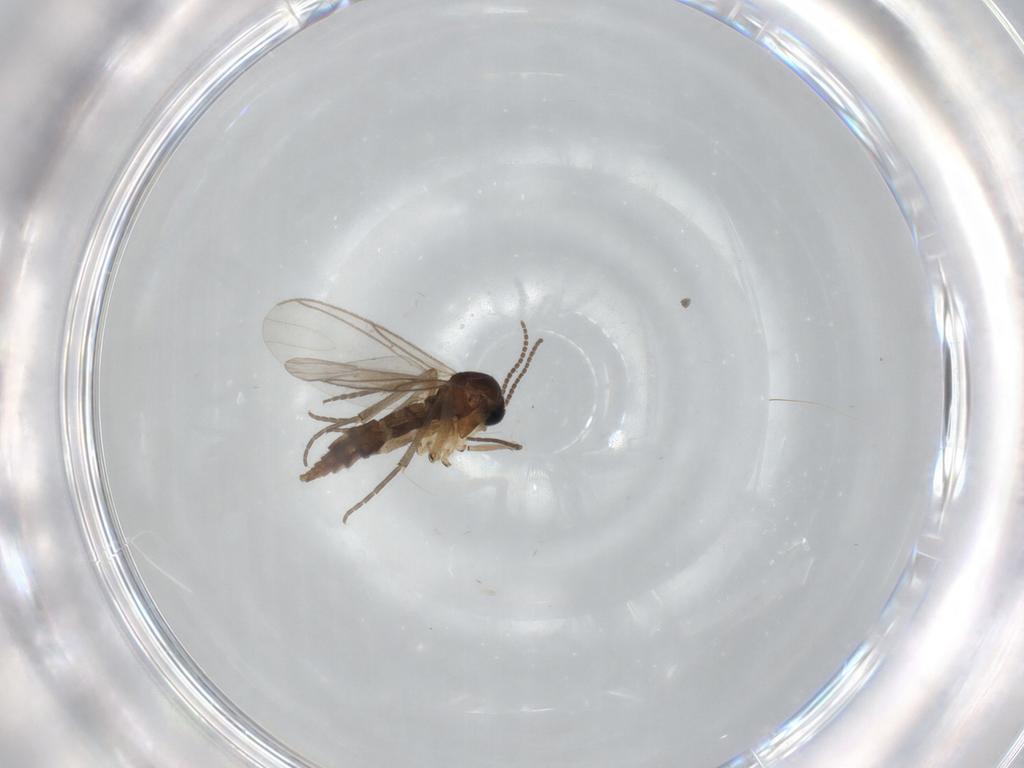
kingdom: Animalia
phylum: Arthropoda
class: Insecta
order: Diptera
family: Sciaridae
